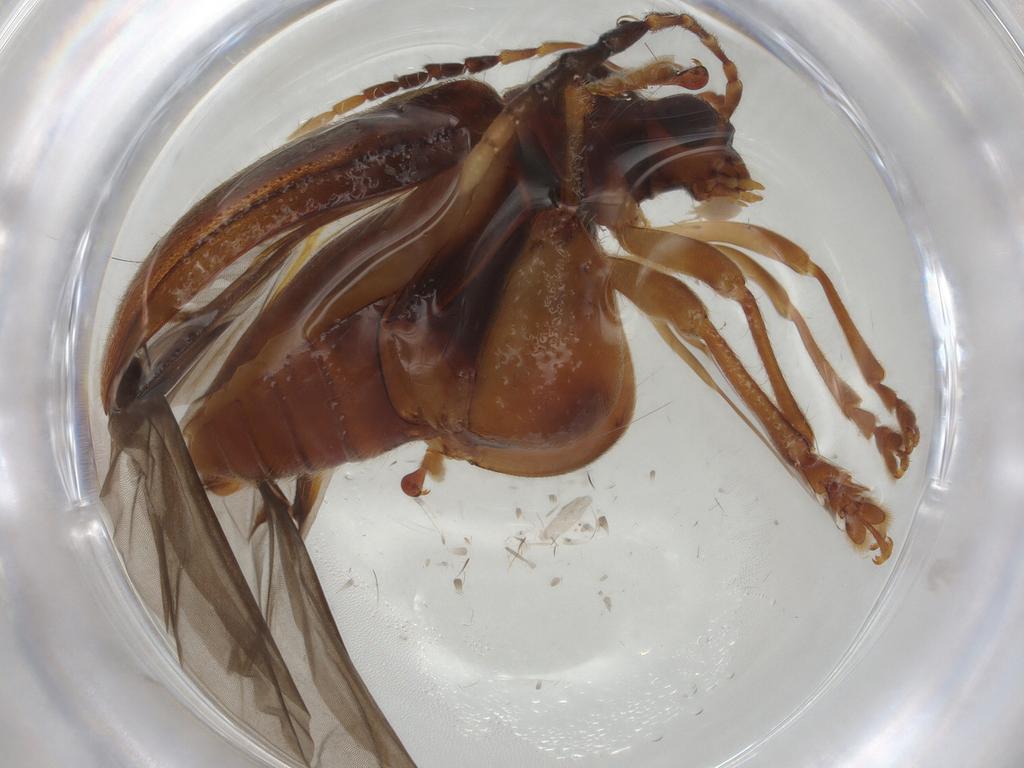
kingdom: Animalia
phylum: Arthropoda
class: Insecta
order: Coleoptera
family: Chrysomelidae
